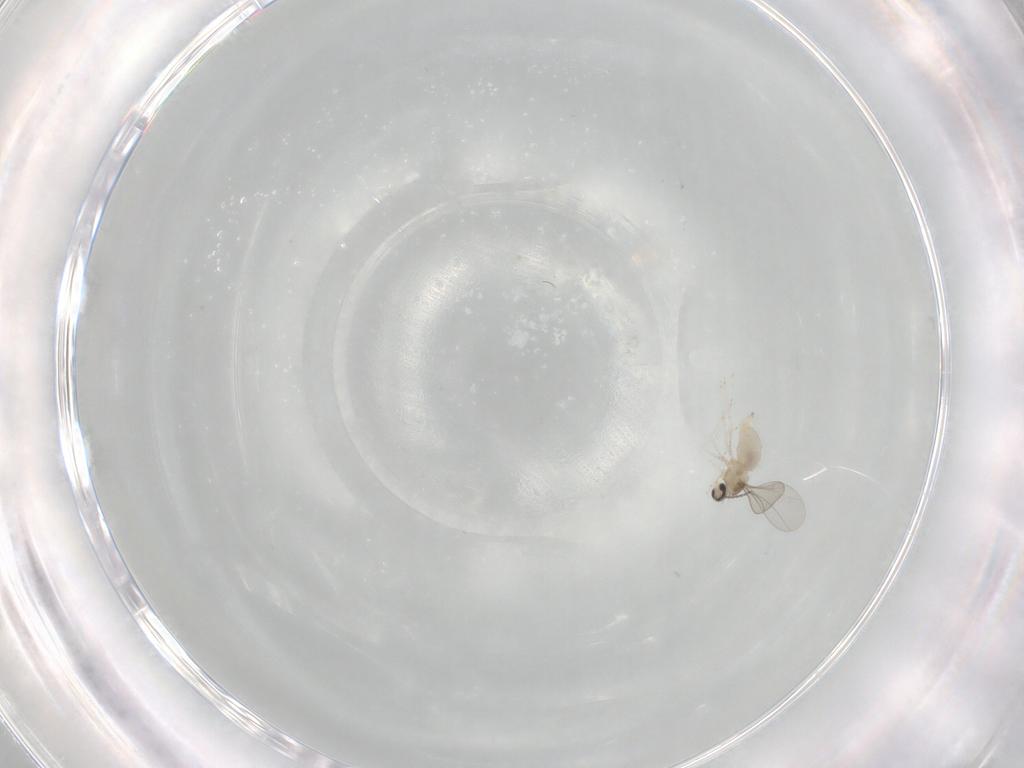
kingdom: Animalia
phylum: Arthropoda
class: Insecta
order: Diptera
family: Cecidomyiidae
